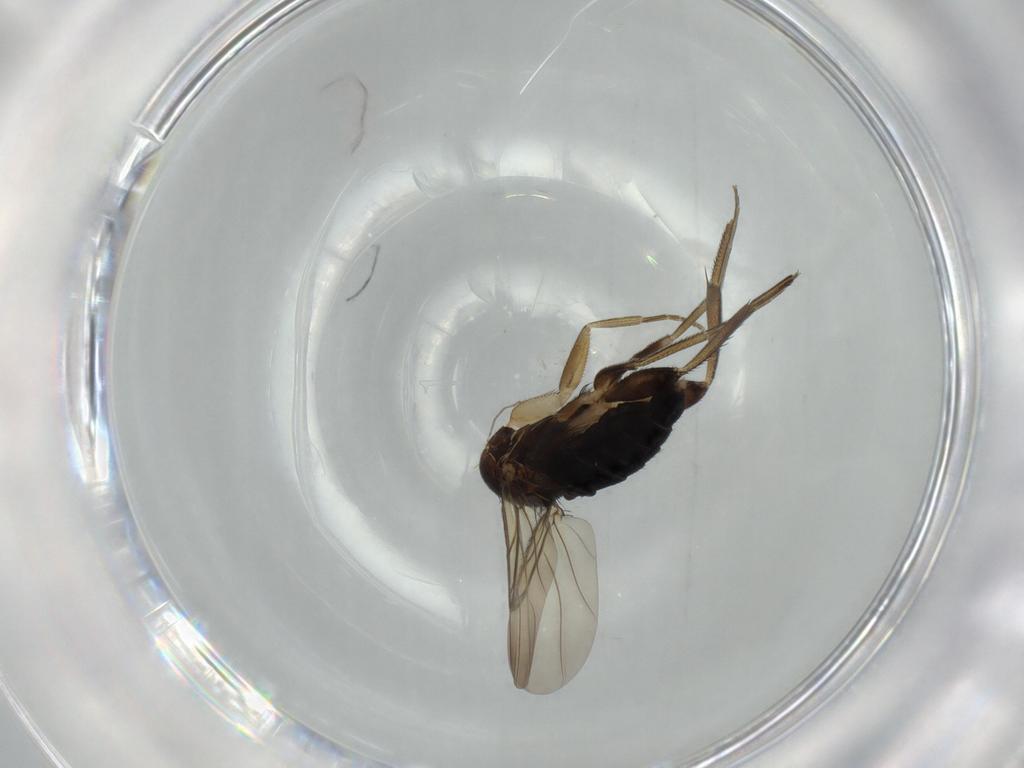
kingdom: Animalia
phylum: Arthropoda
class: Insecta
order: Diptera
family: Phoridae
